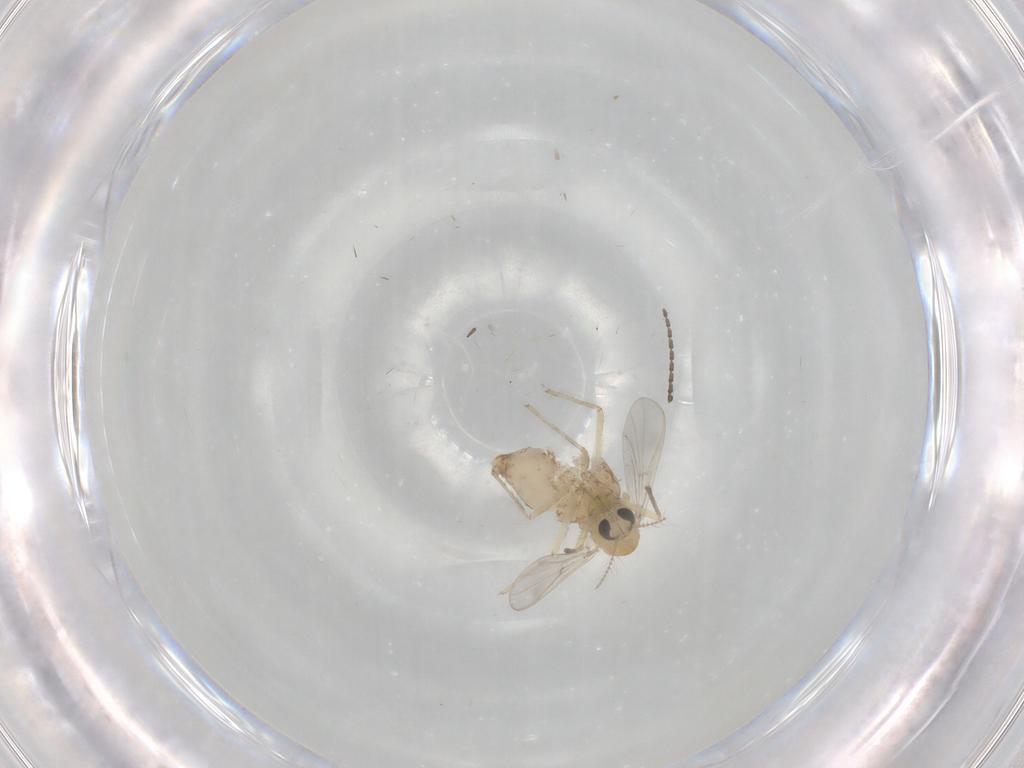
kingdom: Animalia
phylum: Arthropoda
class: Insecta
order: Diptera
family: Chironomidae
